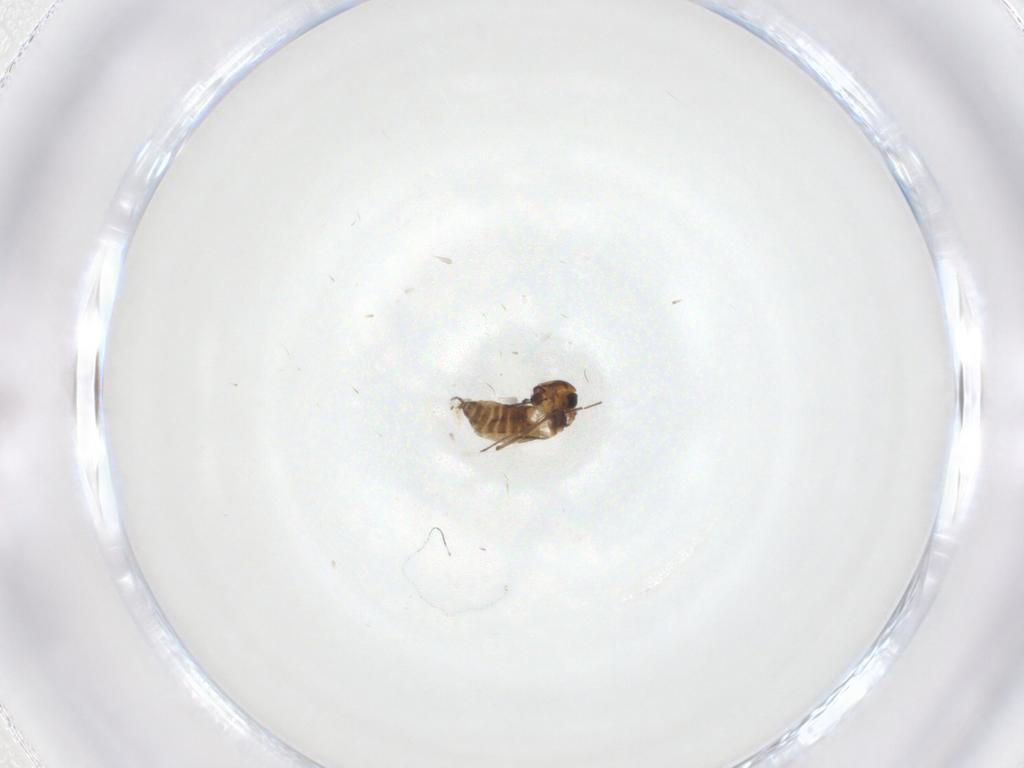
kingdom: Animalia
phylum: Arthropoda
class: Insecta
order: Diptera
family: Chironomidae
